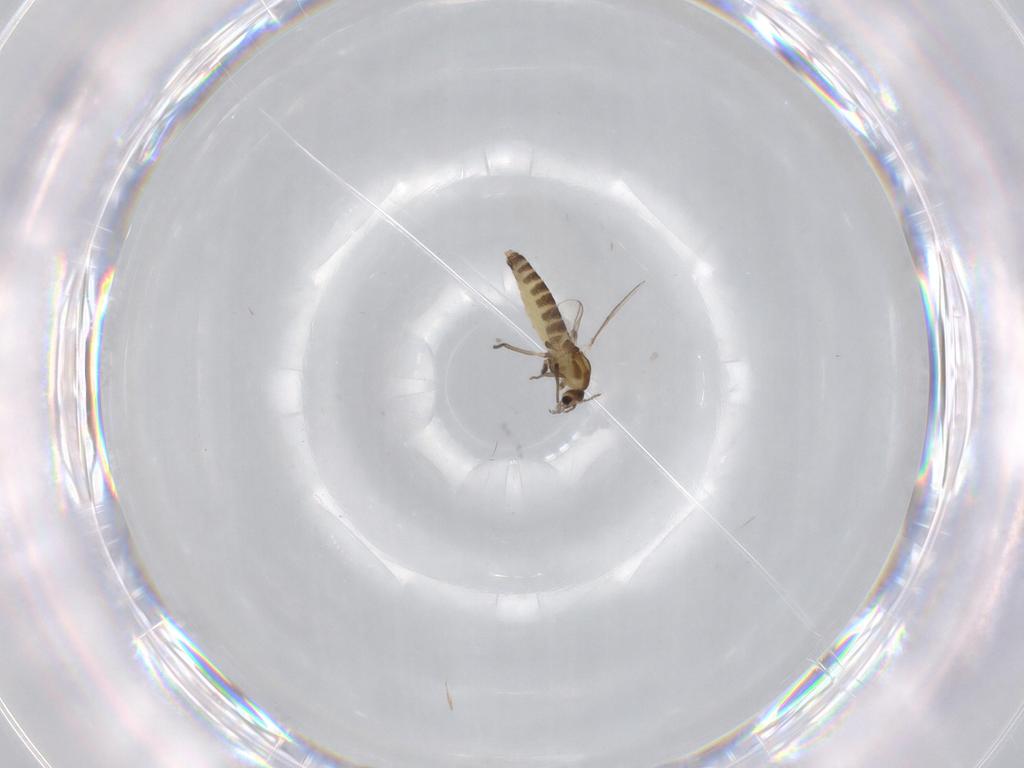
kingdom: Animalia
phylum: Arthropoda
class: Insecta
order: Diptera
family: Chironomidae
